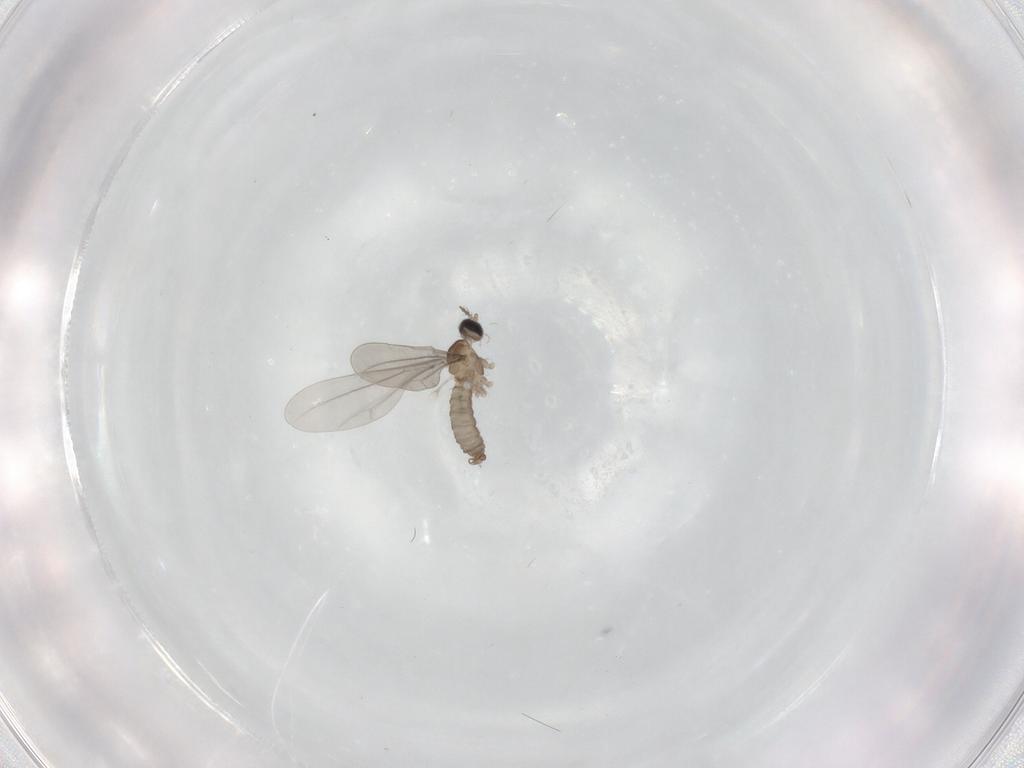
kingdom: Animalia
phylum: Arthropoda
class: Insecta
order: Diptera
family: Cecidomyiidae
